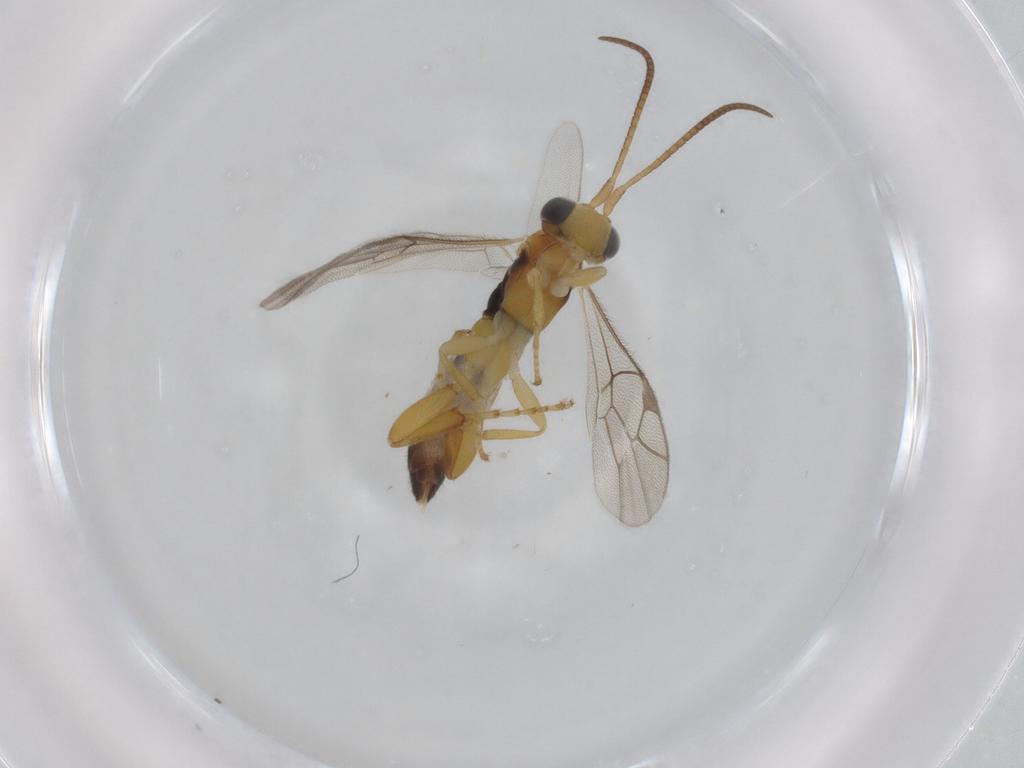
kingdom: Animalia
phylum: Arthropoda
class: Insecta
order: Hymenoptera
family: Ichneumonidae
